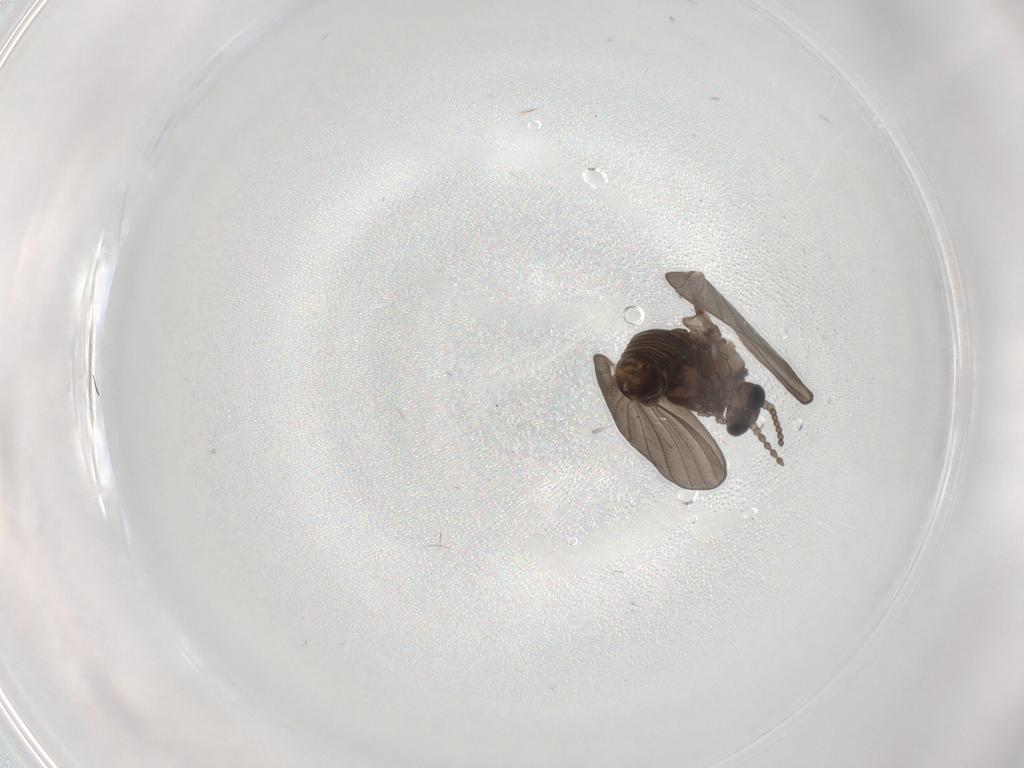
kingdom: Animalia
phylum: Arthropoda
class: Insecta
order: Diptera
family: Psychodidae
